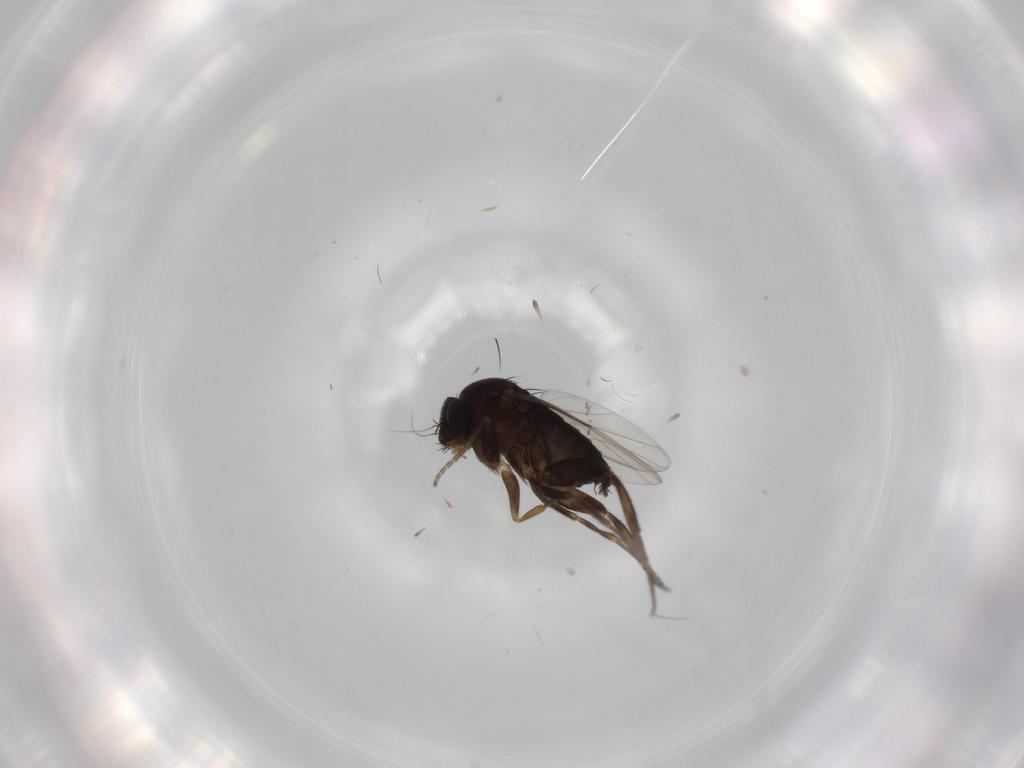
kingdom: Animalia
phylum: Arthropoda
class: Insecta
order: Diptera
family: Phoridae
